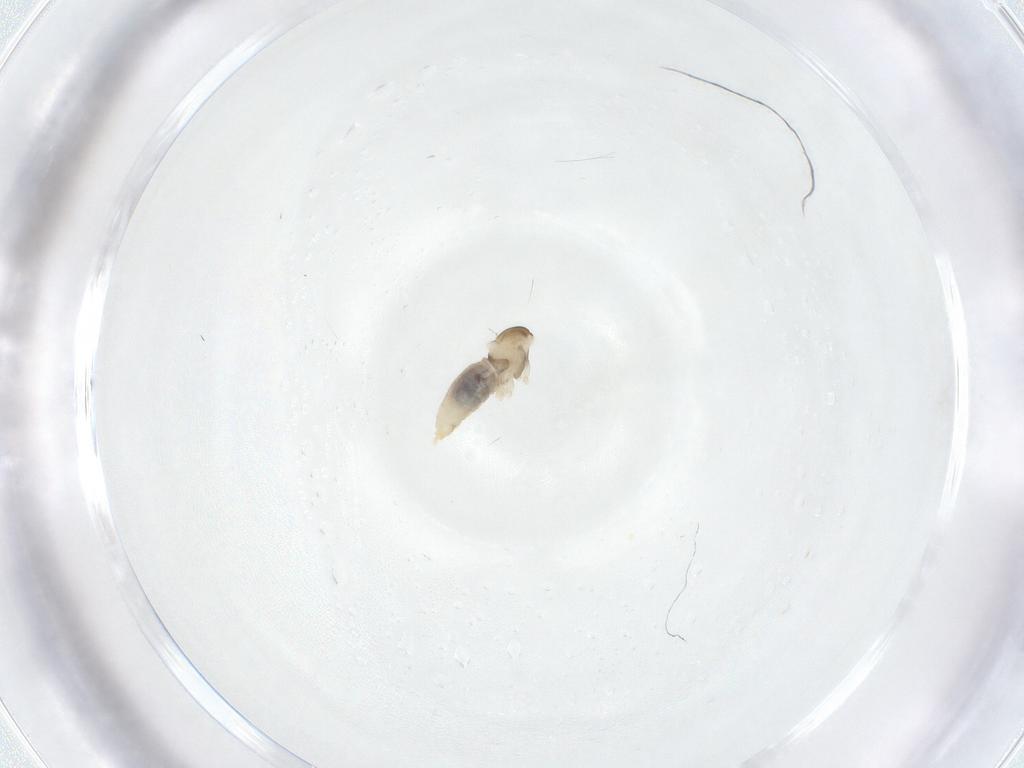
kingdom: Animalia
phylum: Arthropoda
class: Insecta
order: Diptera
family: Cecidomyiidae
